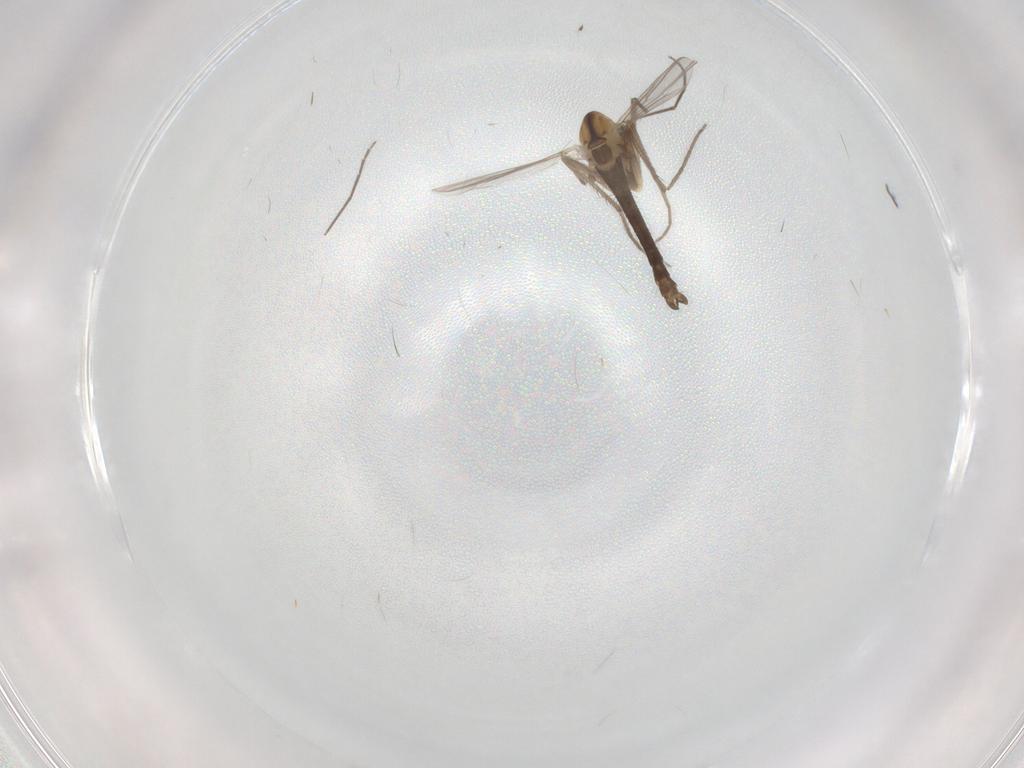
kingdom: Animalia
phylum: Arthropoda
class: Insecta
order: Diptera
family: Chironomidae
